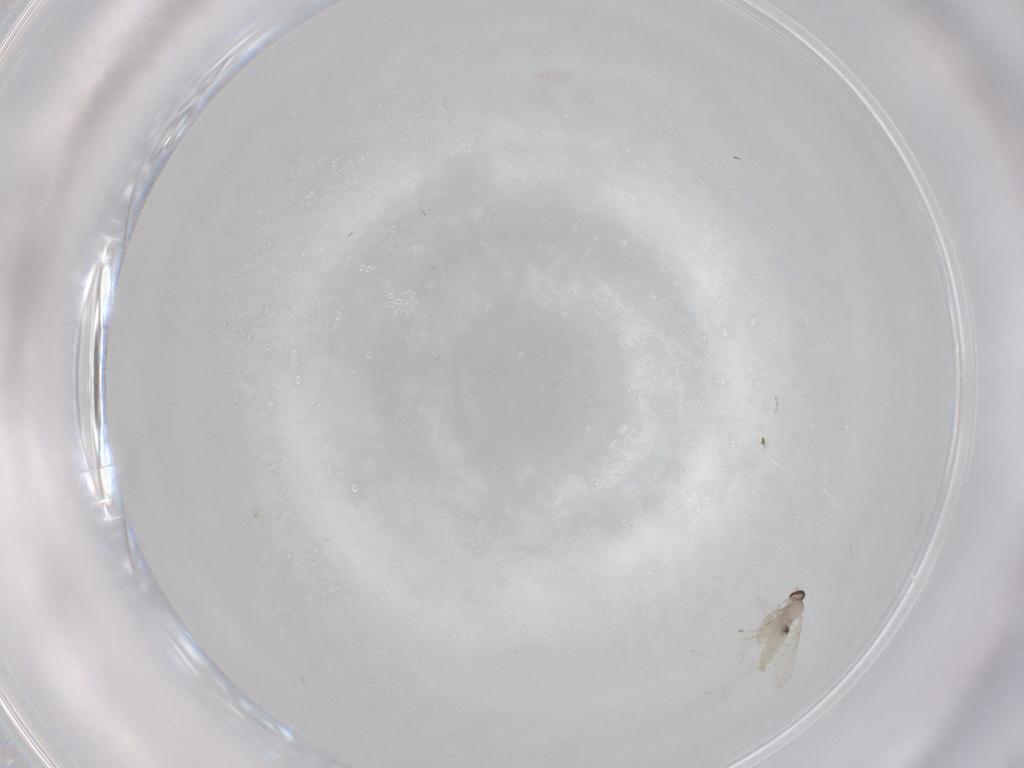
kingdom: Animalia
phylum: Arthropoda
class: Insecta
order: Diptera
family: Cecidomyiidae
